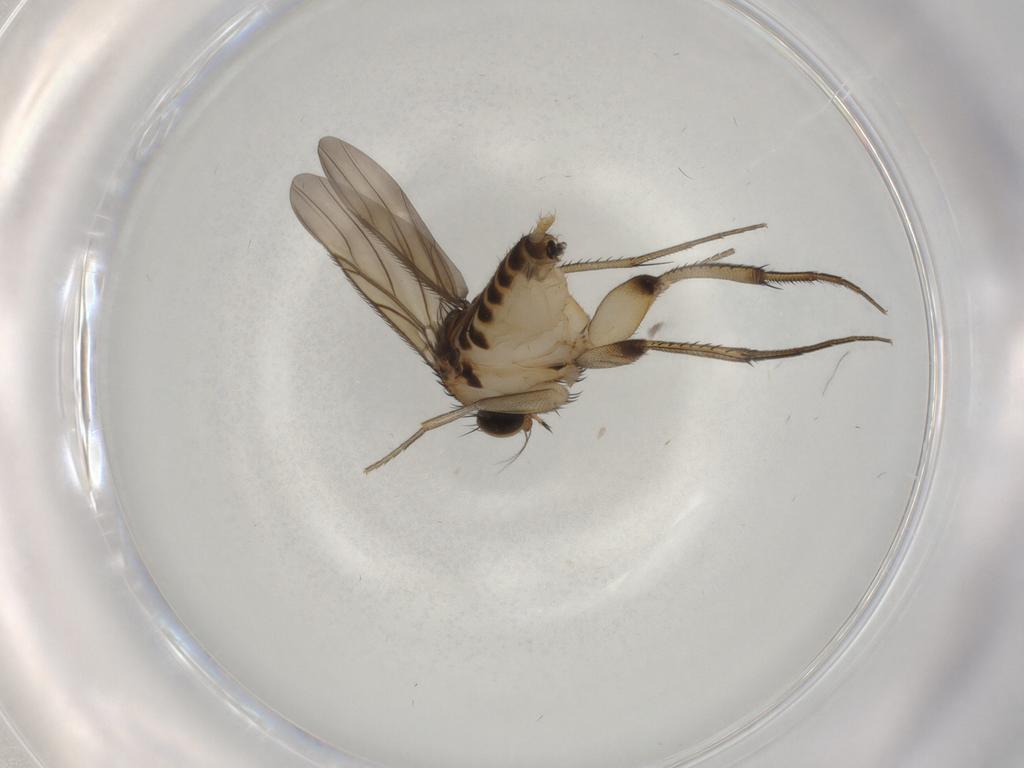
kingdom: Animalia
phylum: Arthropoda
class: Insecta
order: Diptera
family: Phoridae
